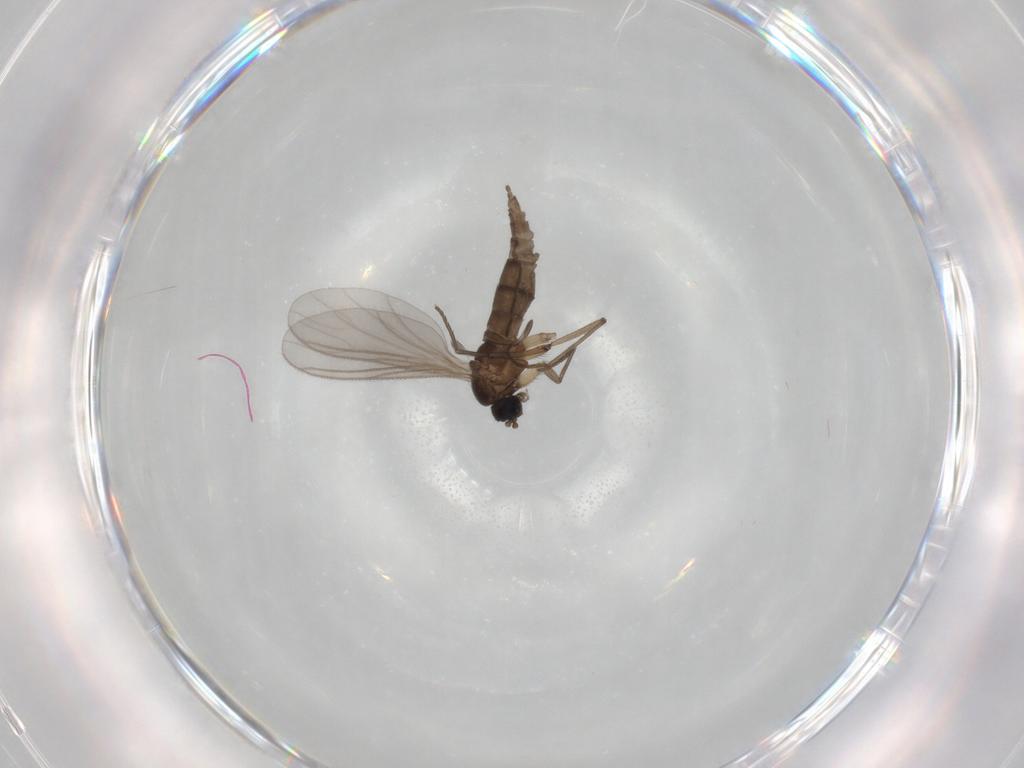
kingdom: Animalia
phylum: Arthropoda
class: Insecta
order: Diptera
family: Sciaridae
